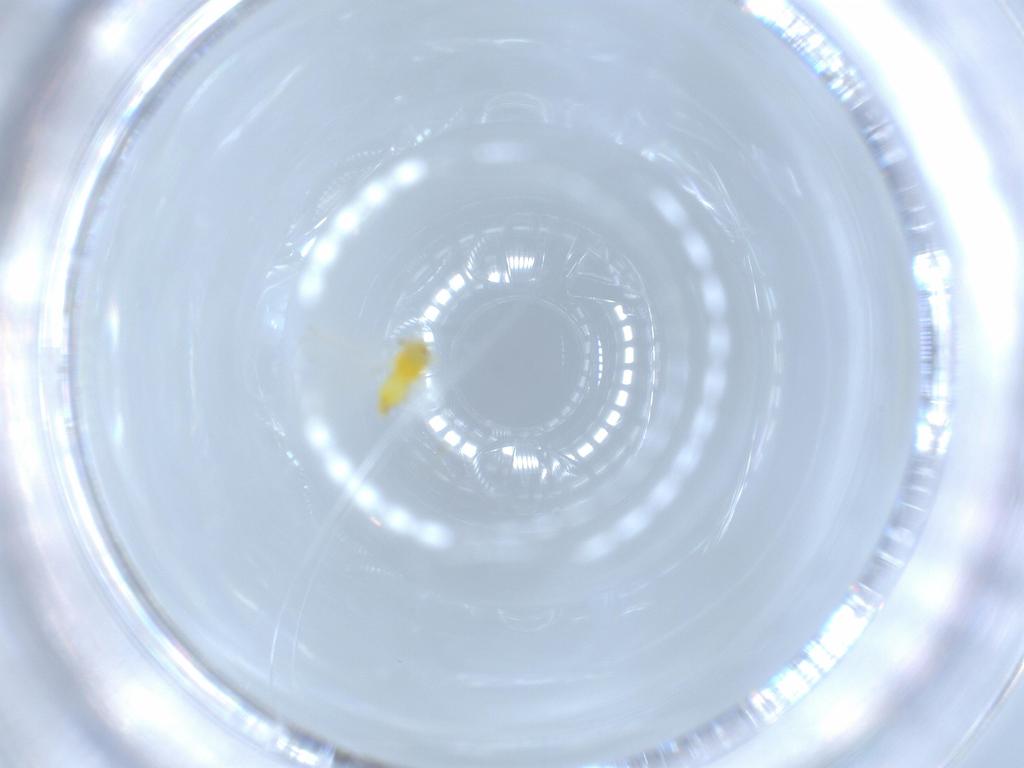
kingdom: Animalia
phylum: Arthropoda
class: Insecta
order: Hemiptera
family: Aleyrodidae
